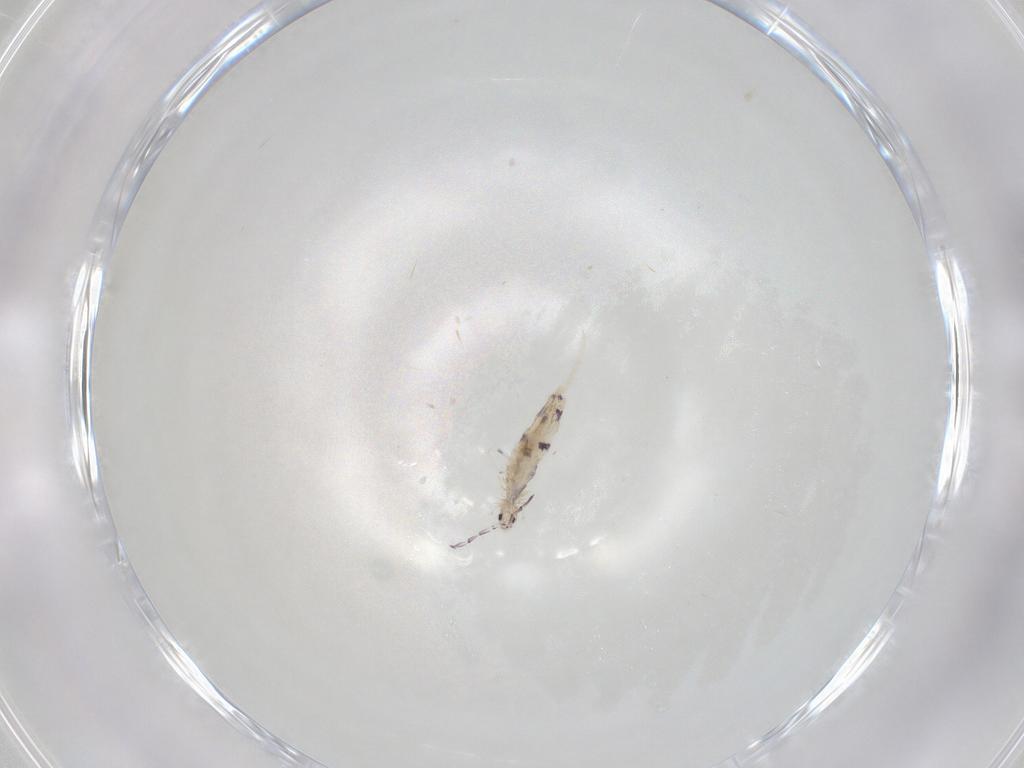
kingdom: Animalia
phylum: Arthropoda
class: Collembola
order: Entomobryomorpha
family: Entomobryidae
